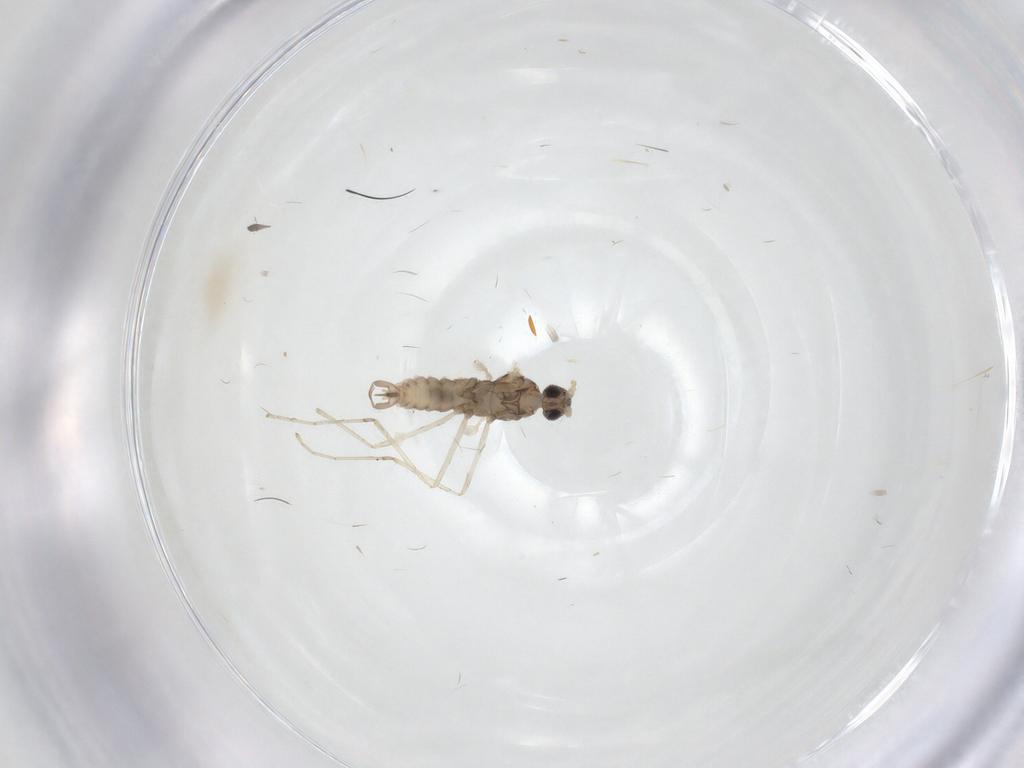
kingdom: Animalia
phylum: Arthropoda
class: Insecta
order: Diptera
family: Cecidomyiidae
